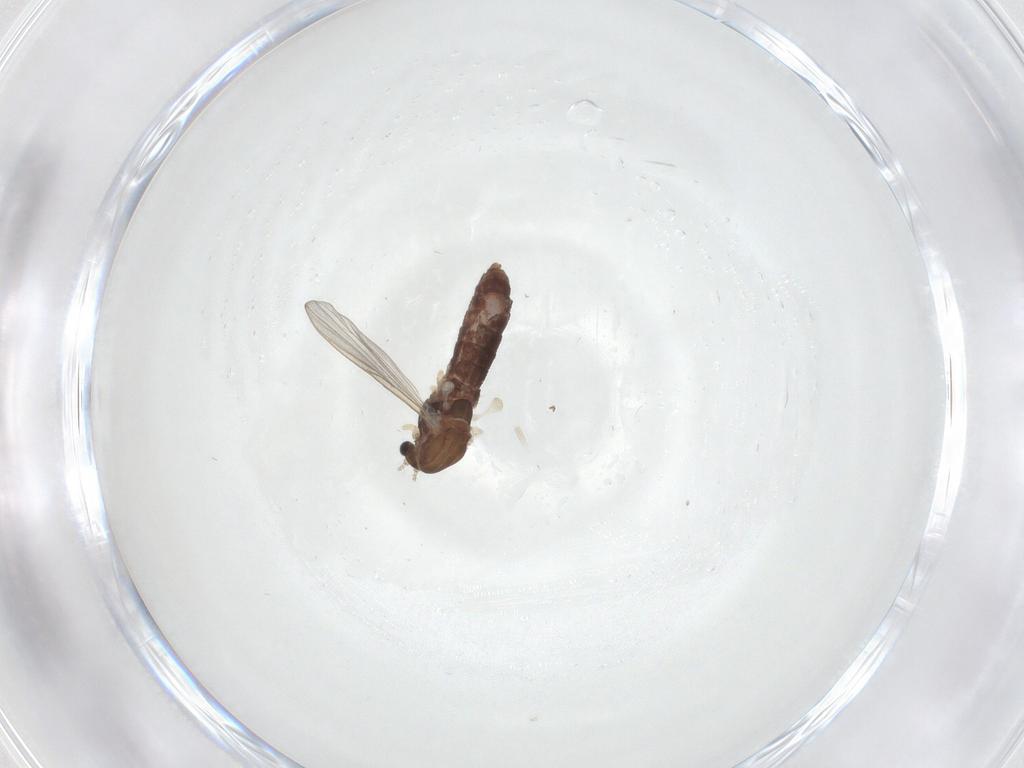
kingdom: Animalia
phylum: Arthropoda
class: Insecta
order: Diptera
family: Chironomidae
